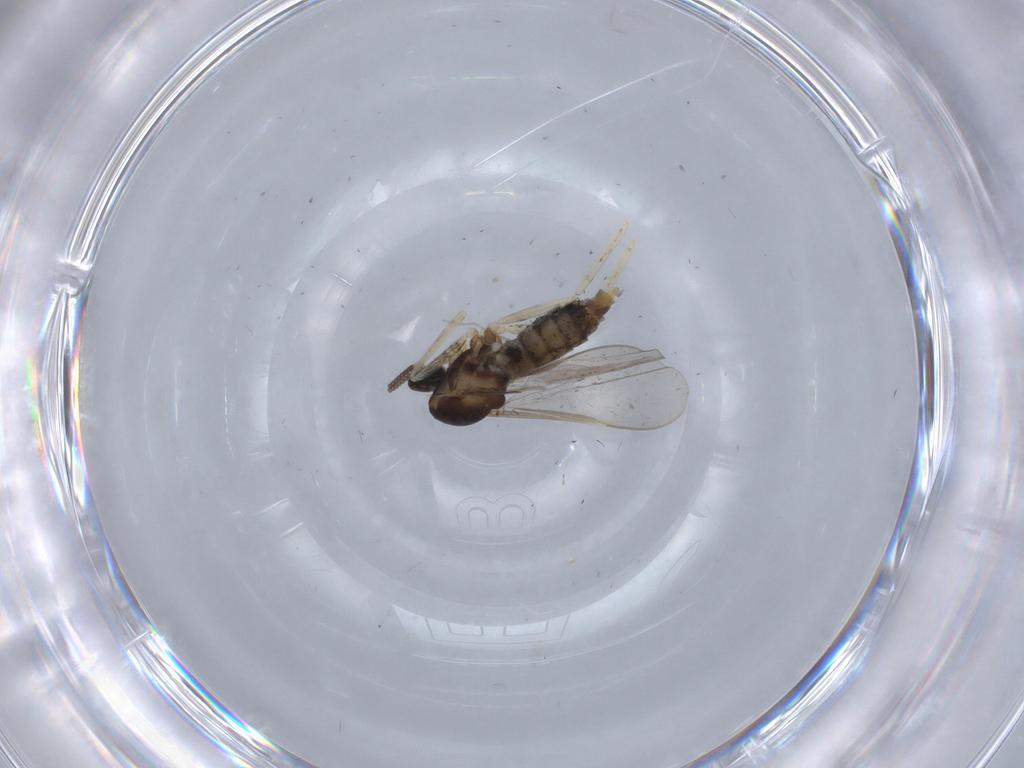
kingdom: Animalia
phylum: Arthropoda
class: Insecta
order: Diptera
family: Cecidomyiidae
